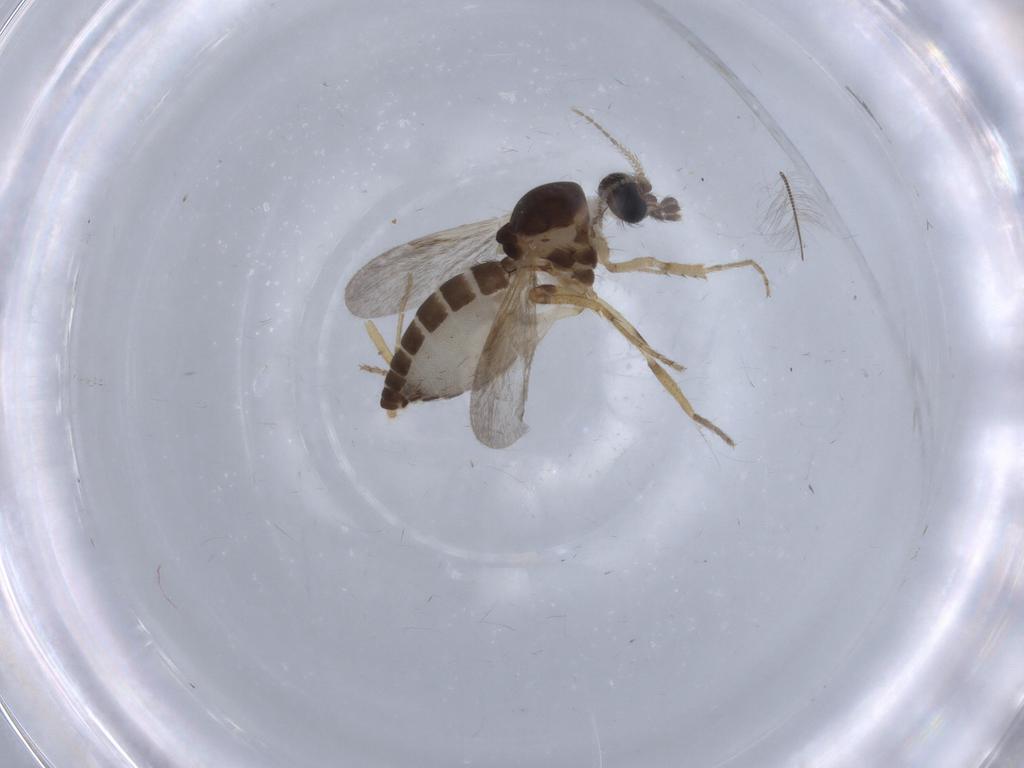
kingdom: Animalia
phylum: Arthropoda
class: Insecta
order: Diptera
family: Ceratopogonidae
